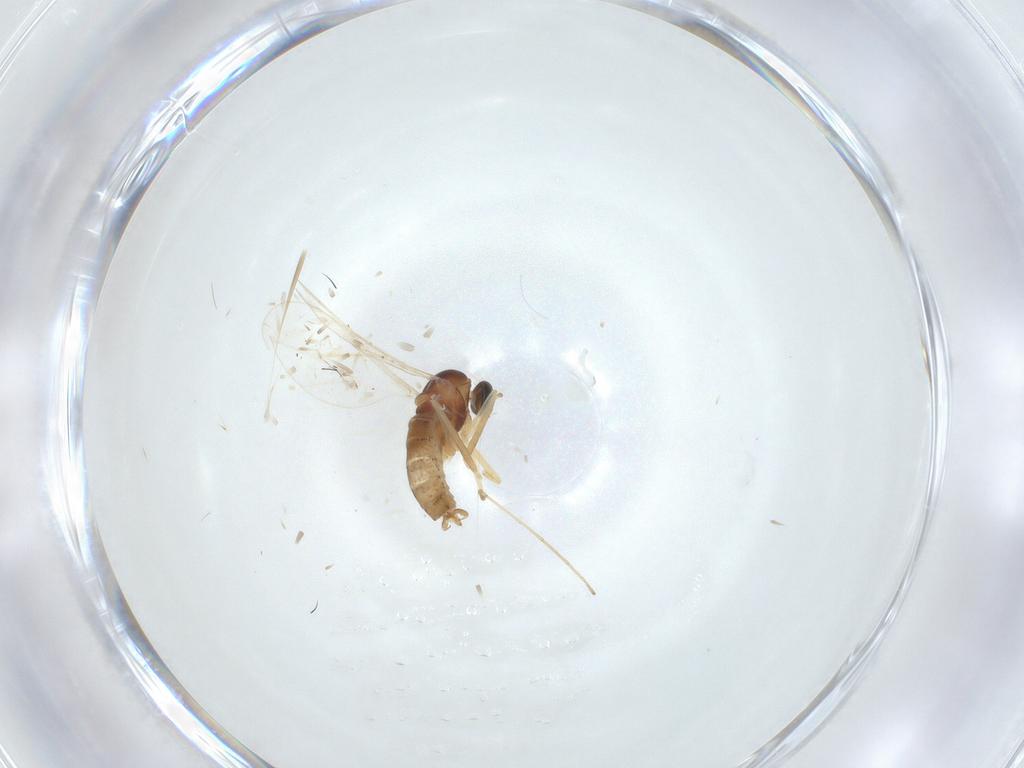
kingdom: Animalia
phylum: Arthropoda
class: Insecta
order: Diptera
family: Cecidomyiidae
